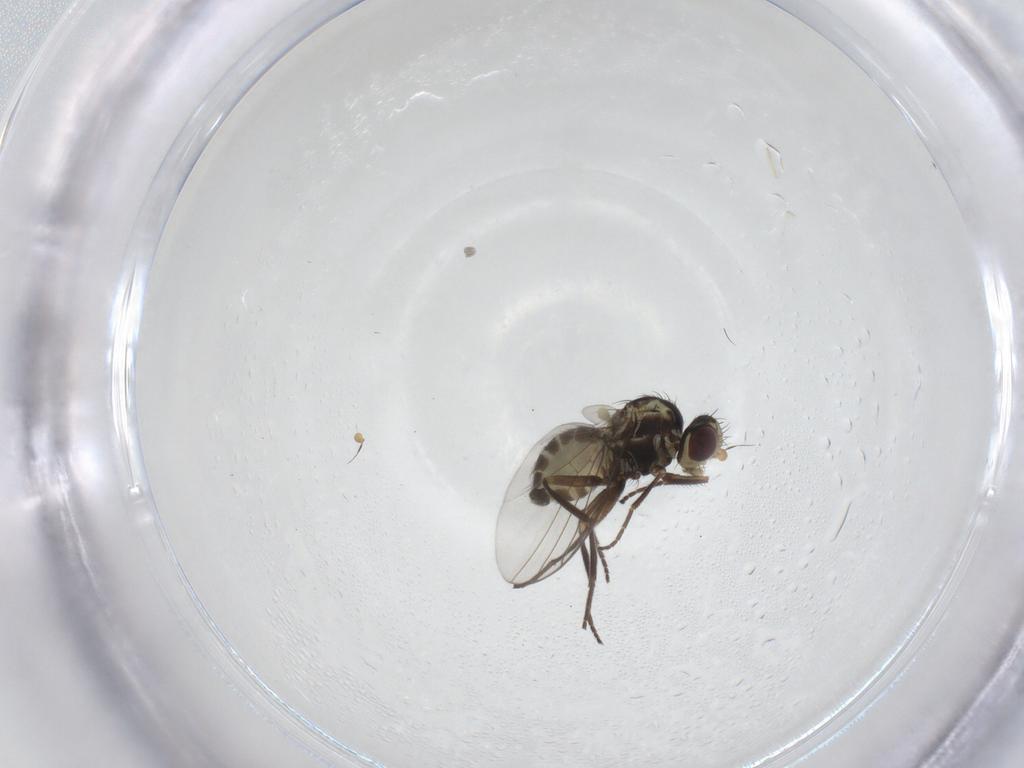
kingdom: Animalia
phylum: Arthropoda
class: Insecta
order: Diptera
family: Agromyzidae
